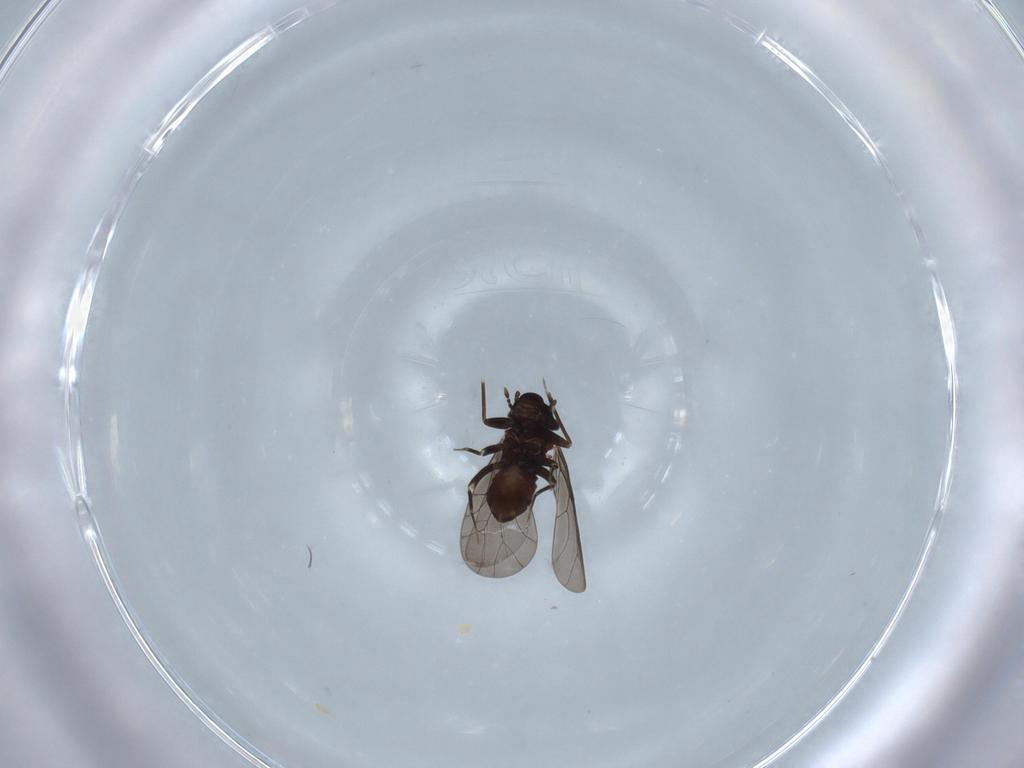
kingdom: Animalia
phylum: Arthropoda
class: Insecta
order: Psocodea
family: Lepidopsocidae
